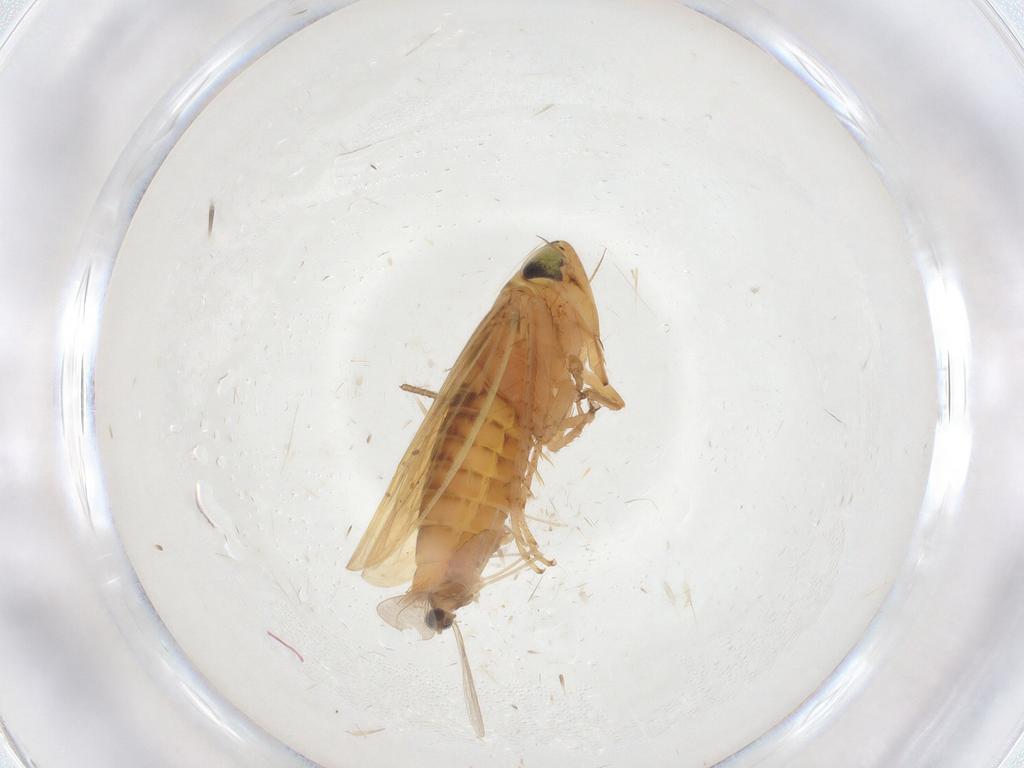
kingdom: Animalia
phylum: Arthropoda
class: Insecta
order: Hemiptera
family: Cicadellidae
